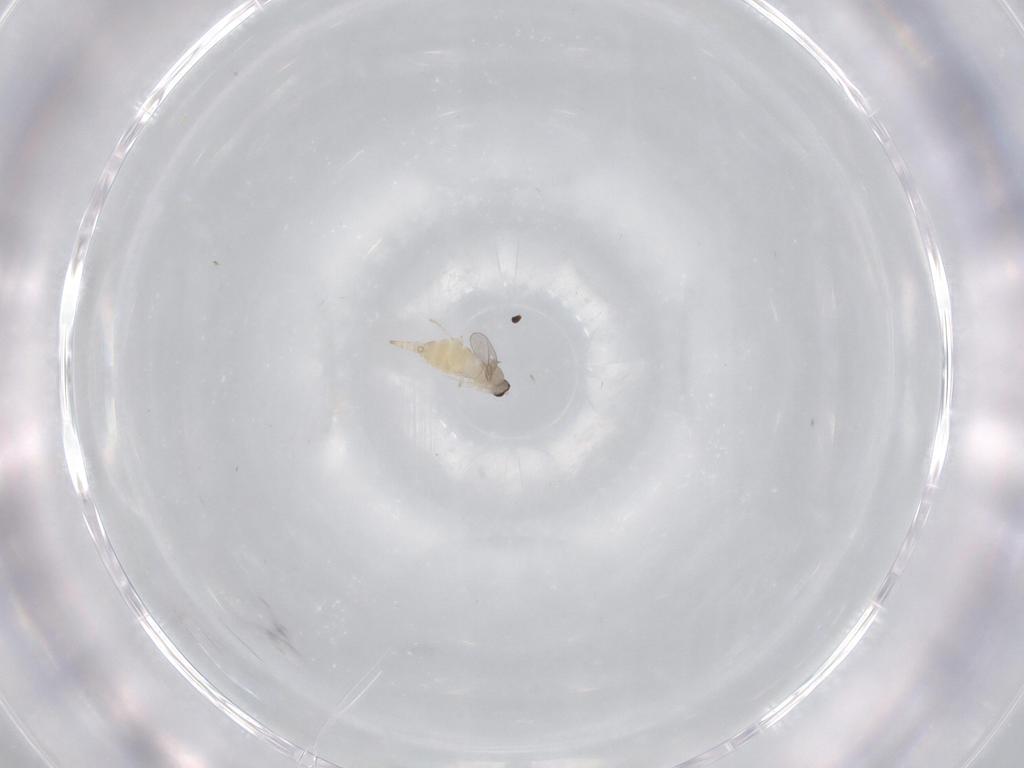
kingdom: Animalia
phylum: Arthropoda
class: Insecta
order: Diptera
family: Cecidomyiidae
